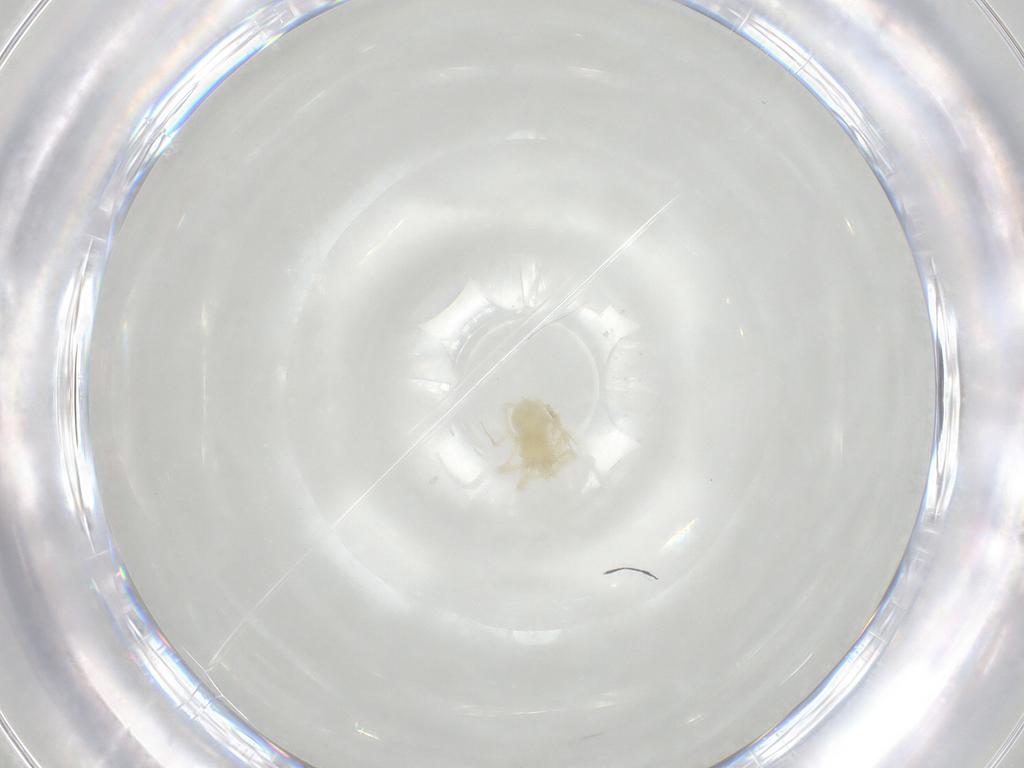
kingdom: Animalia
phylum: Arthropoda
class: Arachnida
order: Trombidiformes
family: Anystidae
